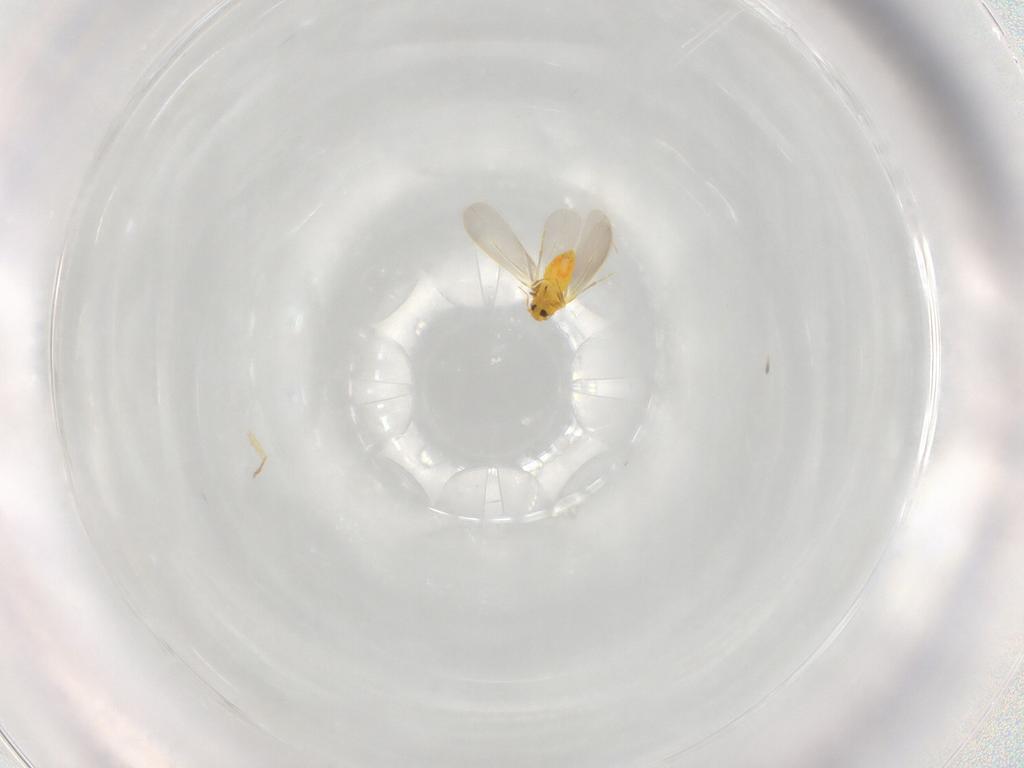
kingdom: Animalia
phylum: Arthropoda
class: Insecta
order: Hemiptera
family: Aleyrodidae
